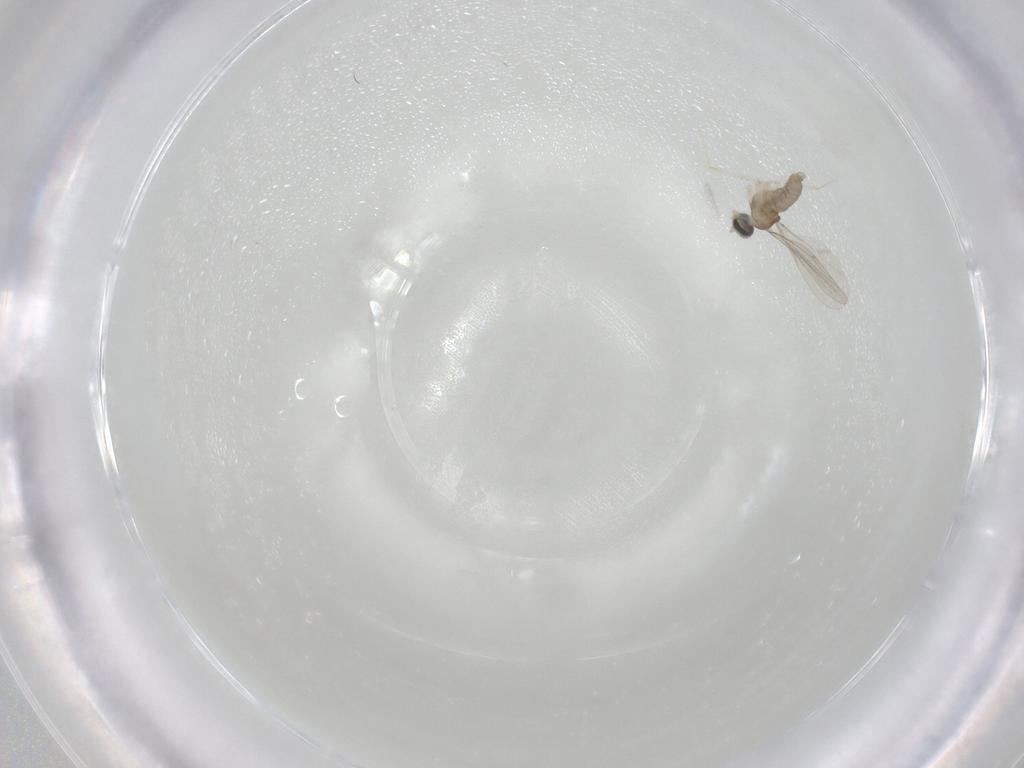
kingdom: Animalia
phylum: Arthropoda
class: Insecta
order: Diptera
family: Cecidomyiidae
